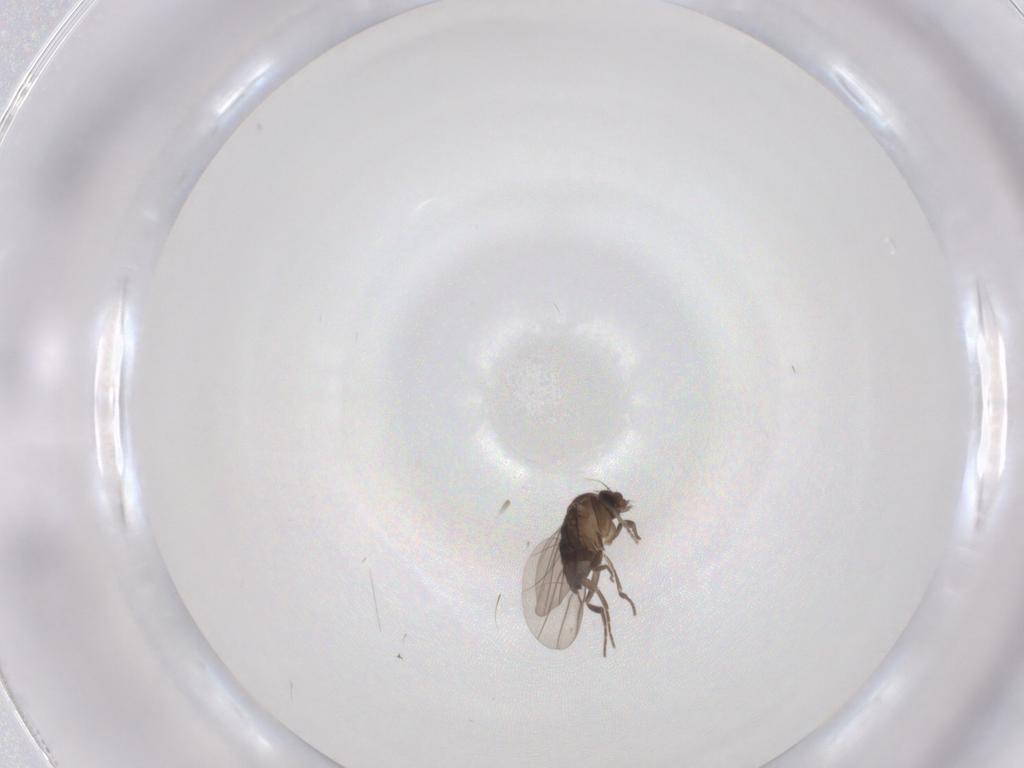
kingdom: Animalia
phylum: Arthropoda
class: Insecta
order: Diptera
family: Phoridae
